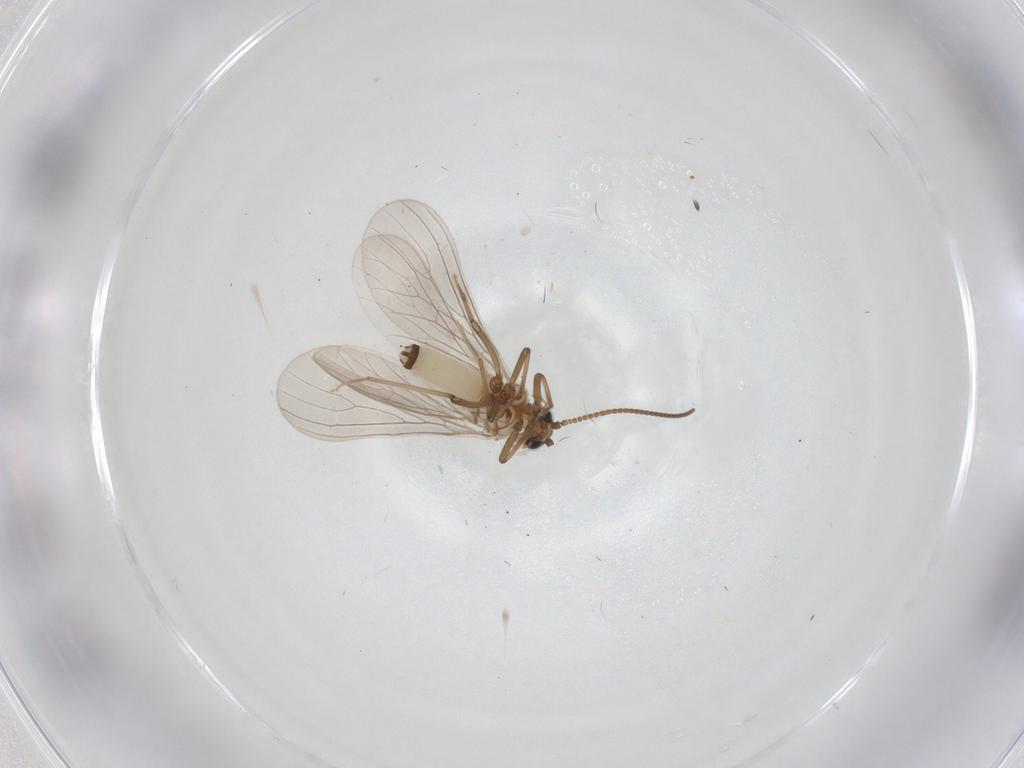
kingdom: Animalia
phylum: Arthropoda
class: Insecta
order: Neuroptera
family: Coniopterygidae
